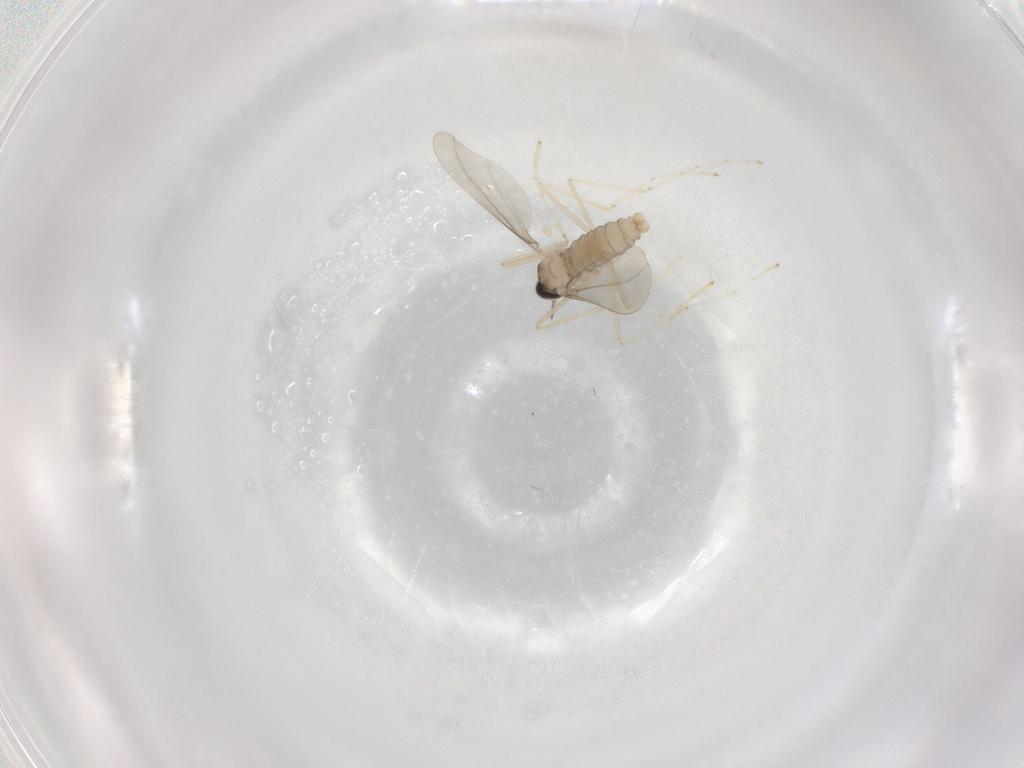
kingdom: Animalia
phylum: Arthropoda
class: Insecta
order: Diptera
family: Cecidomyiidae
